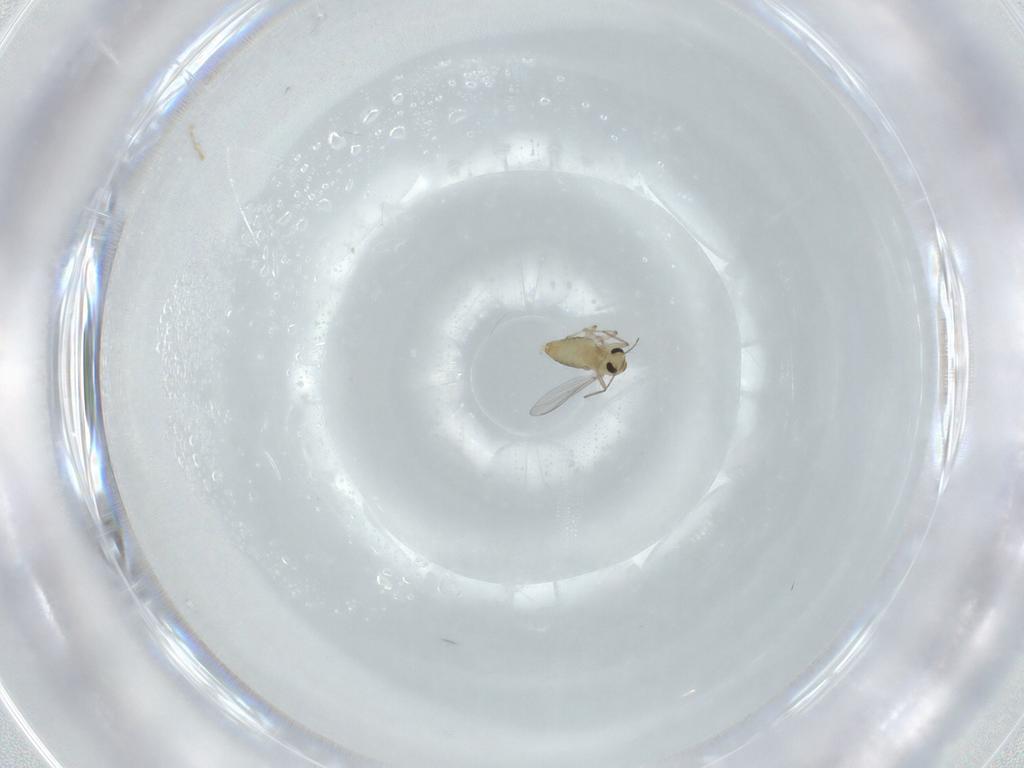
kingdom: Animalia
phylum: Arthropoda
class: Insecta
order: Diptera
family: Chironomidae
